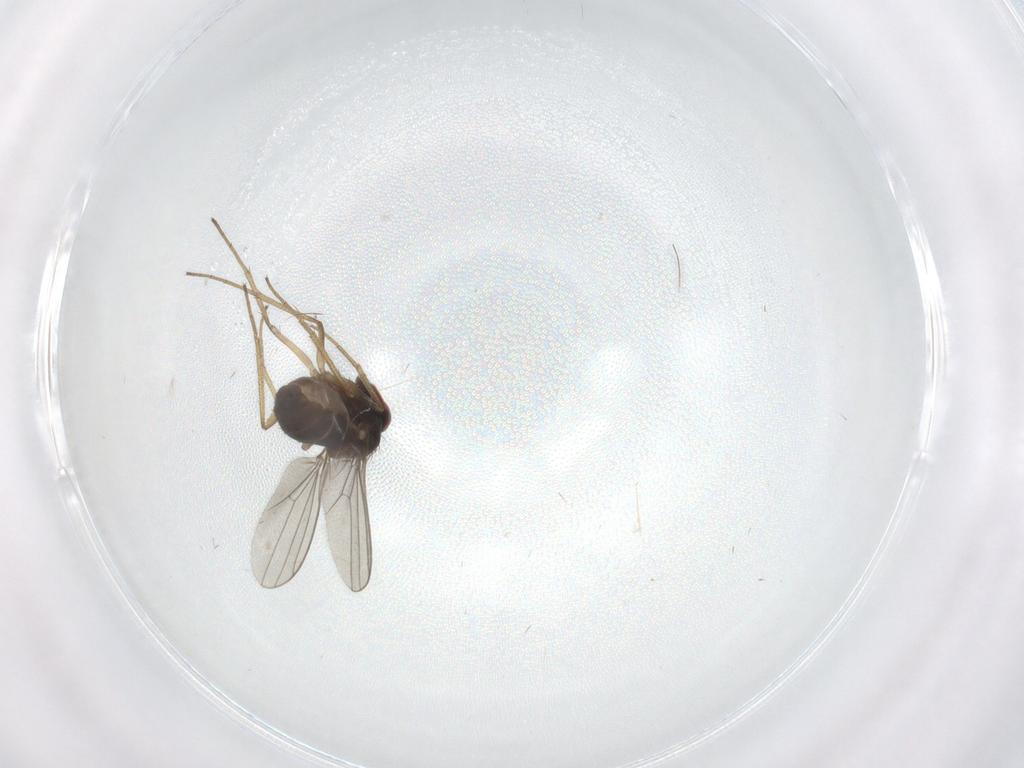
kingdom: Animalia
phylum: Arthropoda
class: Insecta
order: Diptera
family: Dolichopodidae
